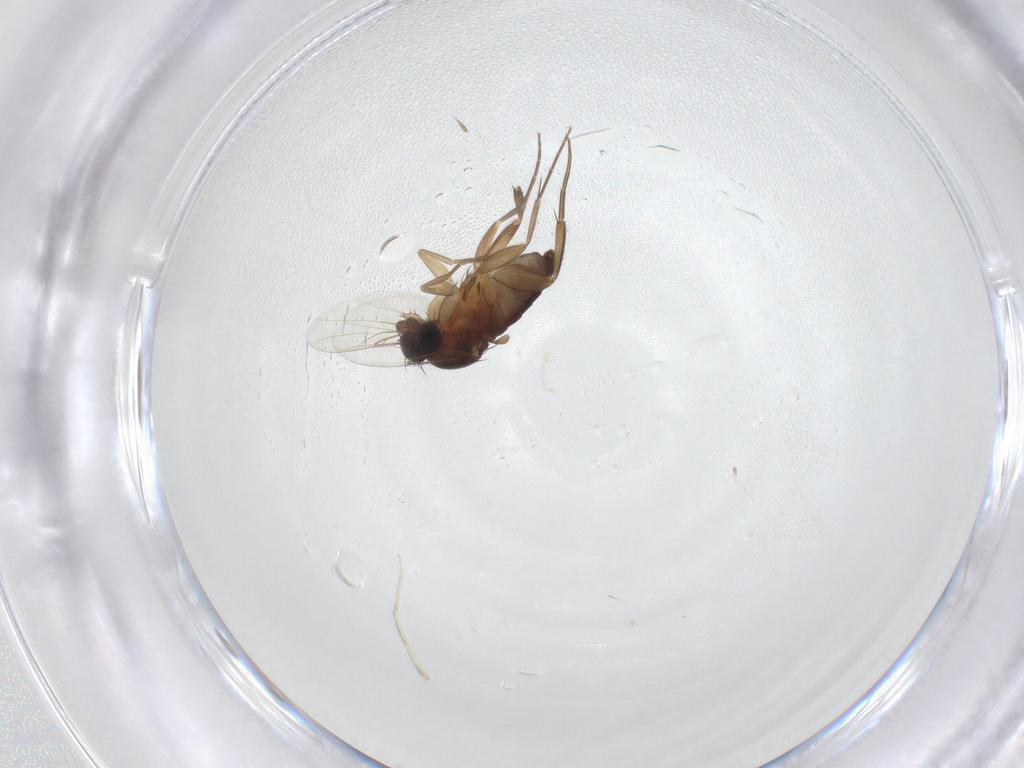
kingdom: Animalia
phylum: Arthropoda
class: Insecta
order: Diptera
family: Phoridae
